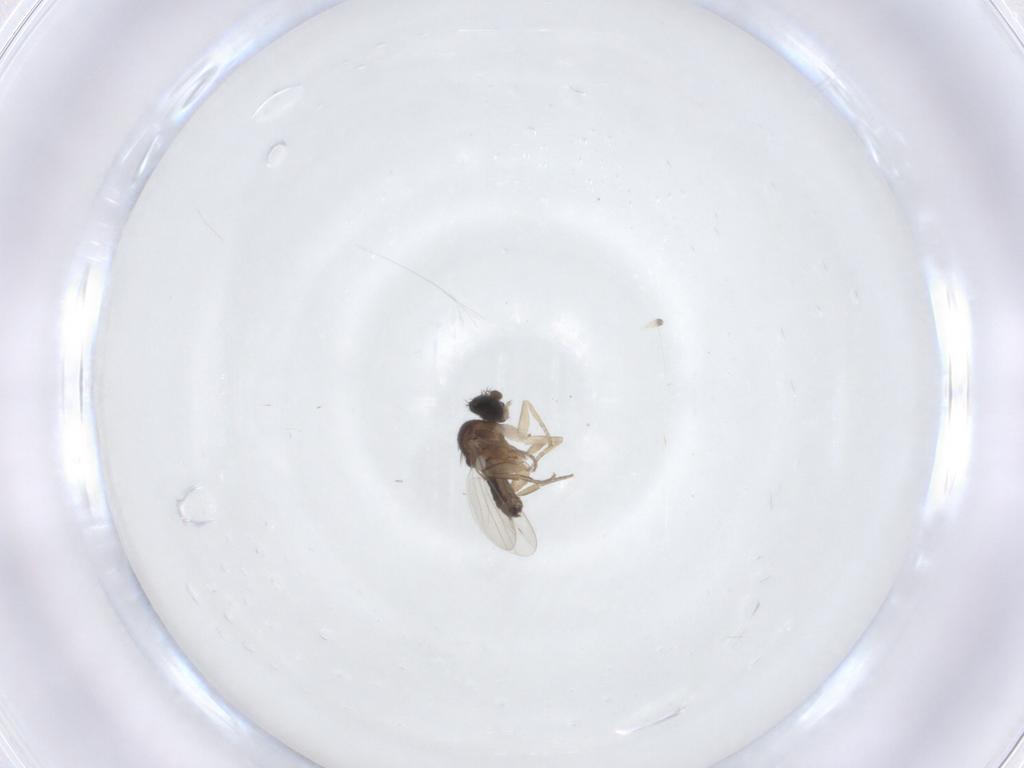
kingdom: Animalia
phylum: Arthropoda
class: Insecta
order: Diptera
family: Phoridae
